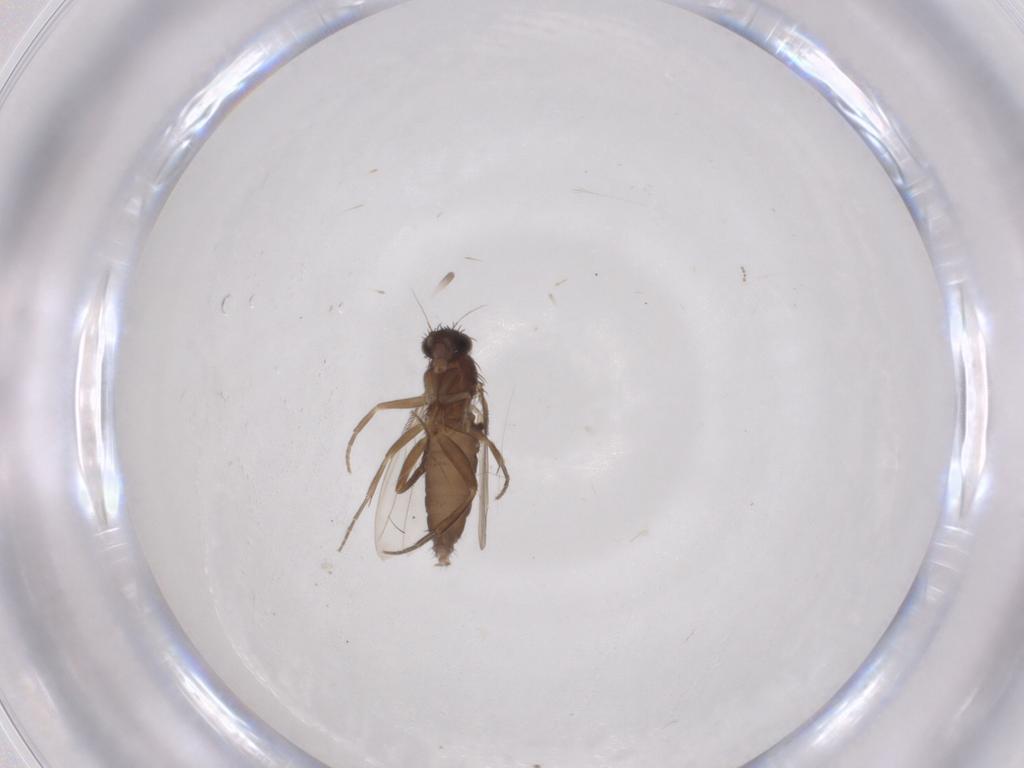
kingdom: Animalia
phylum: Arthropoda
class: Insecta
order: Diptera
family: Phoridae
